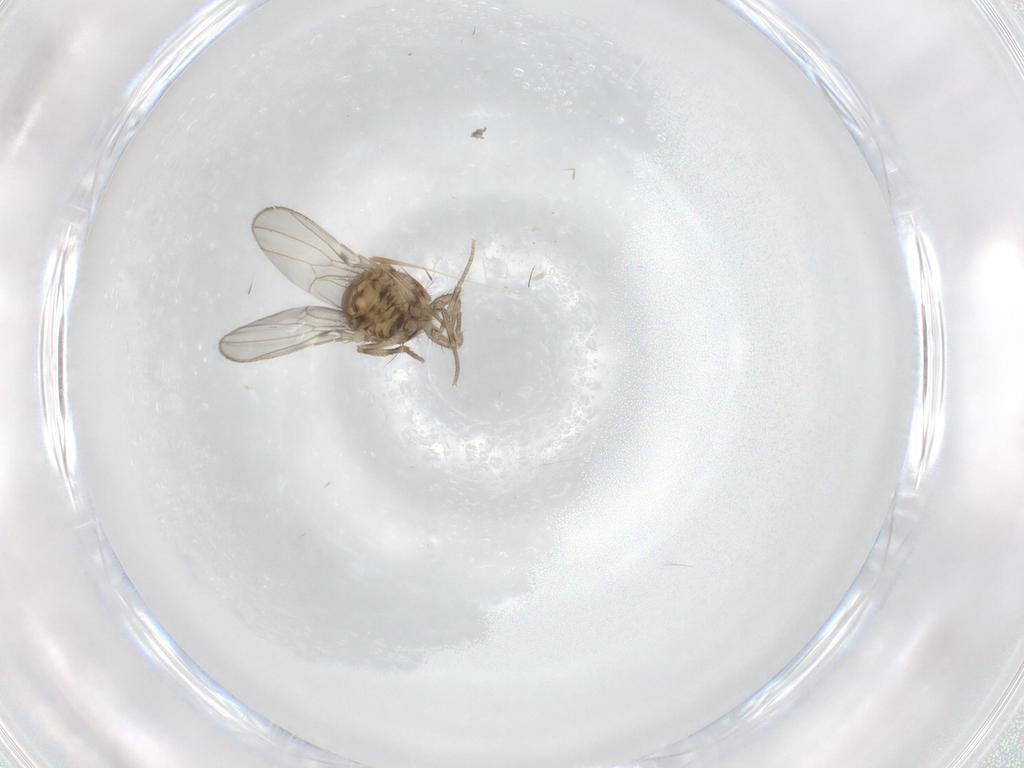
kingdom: Animalia
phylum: Arthropoda
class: Insecta
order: Diptera
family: Drosophilidae
